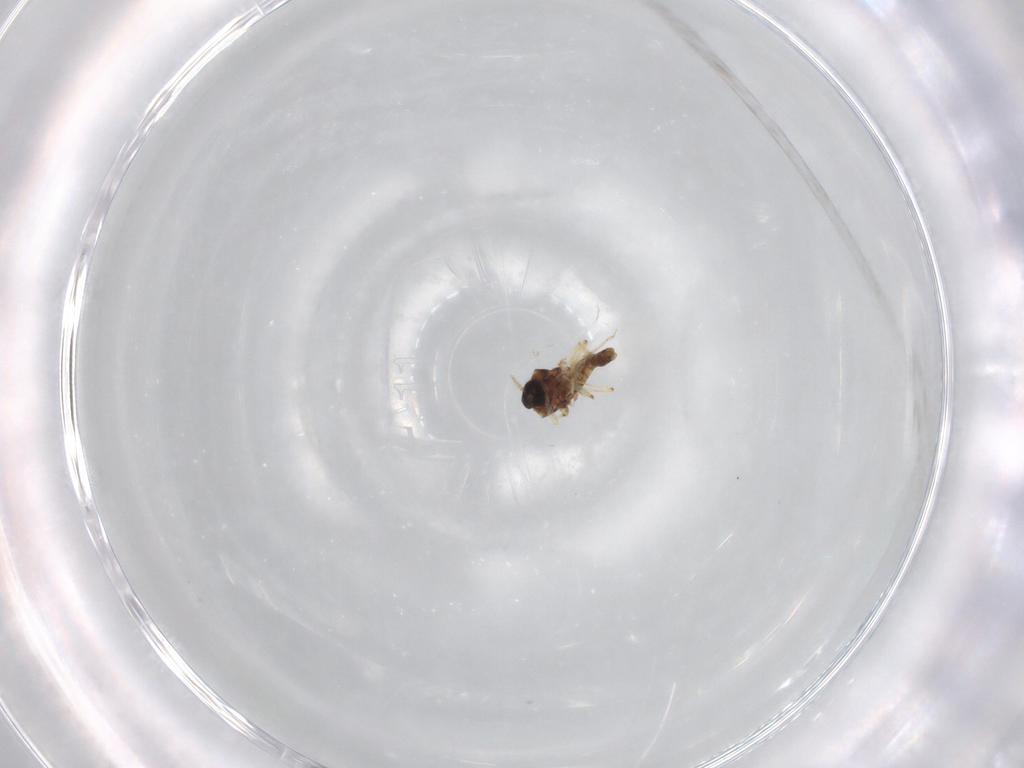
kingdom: Animalia
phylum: Arthropoda
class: Insecta
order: Diptera
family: Ceratopogonidae
